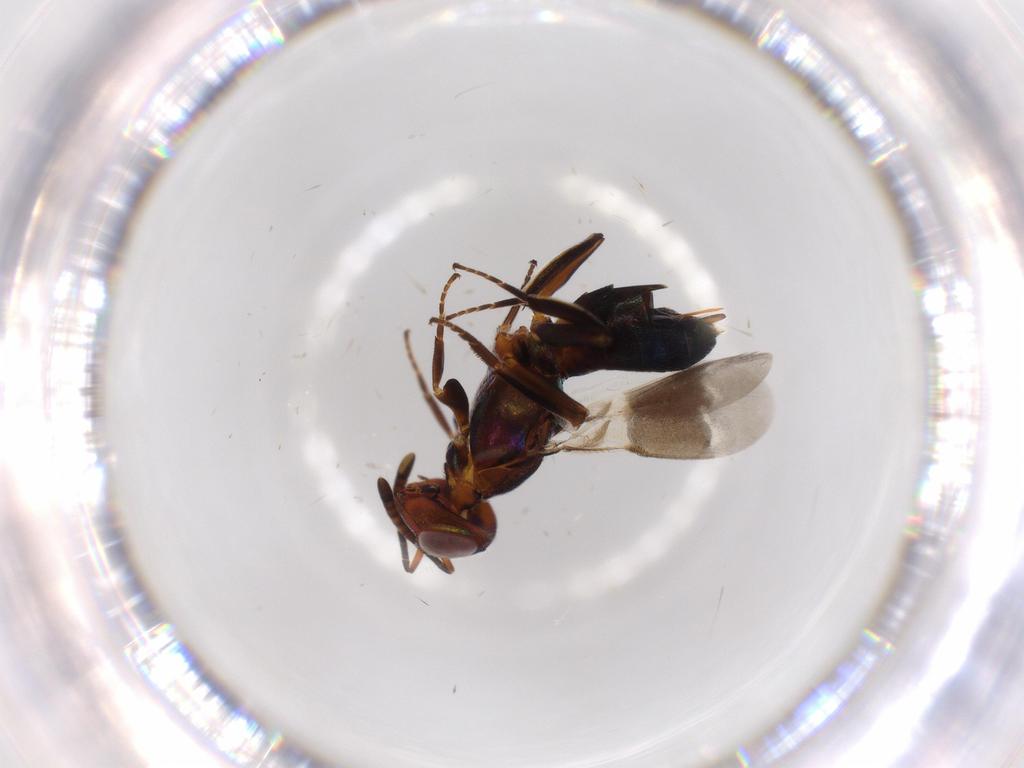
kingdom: Animalia
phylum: Arthropoda
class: Insecta
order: Hymenoptera
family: Eupelmidae
